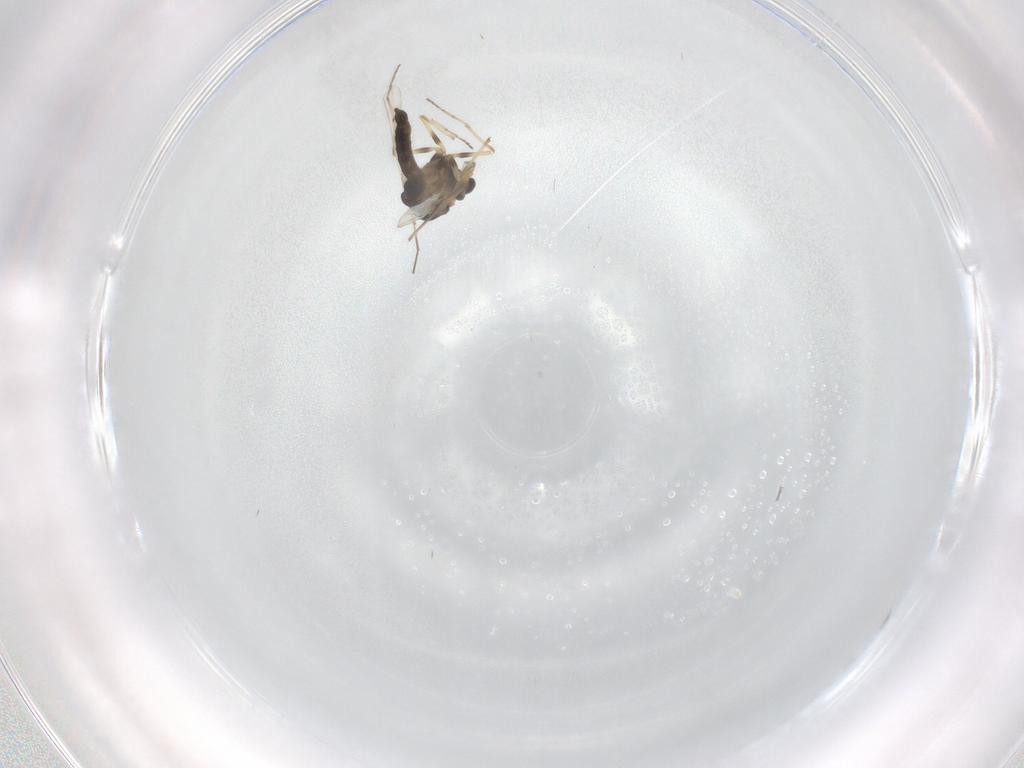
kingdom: Animalia
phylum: Arthropoda
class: Insecta
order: Diptera
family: Chironomidae
